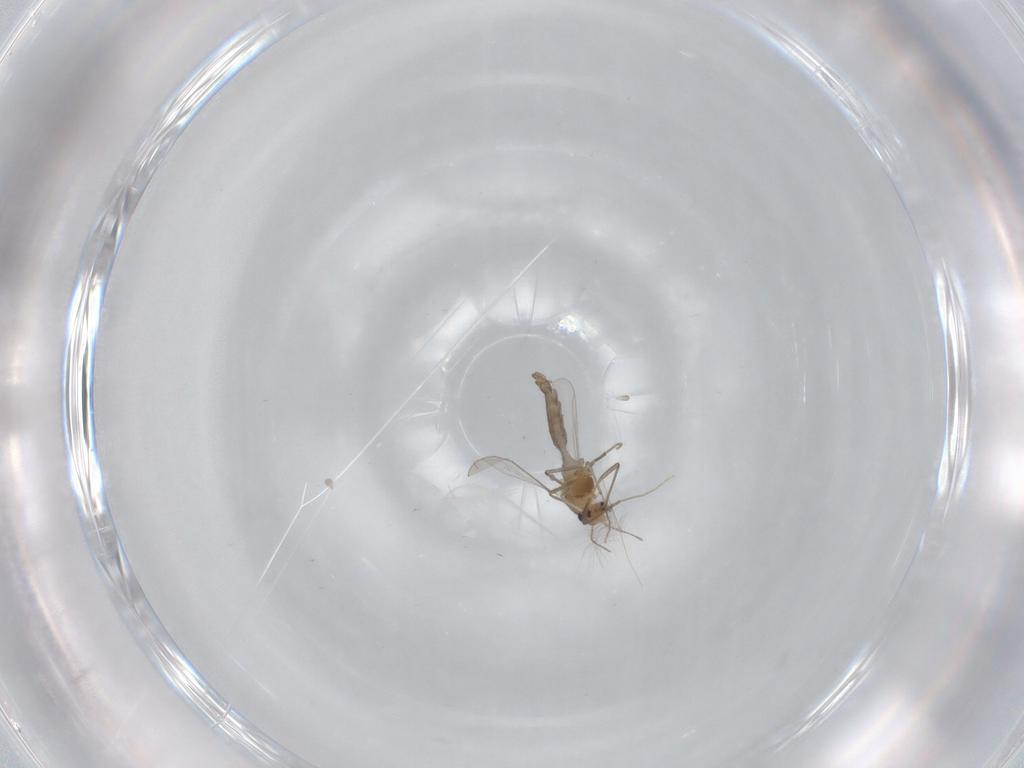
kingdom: Animalia
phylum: Arthropoda
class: Insecta
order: Diptera
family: Chironomidae
